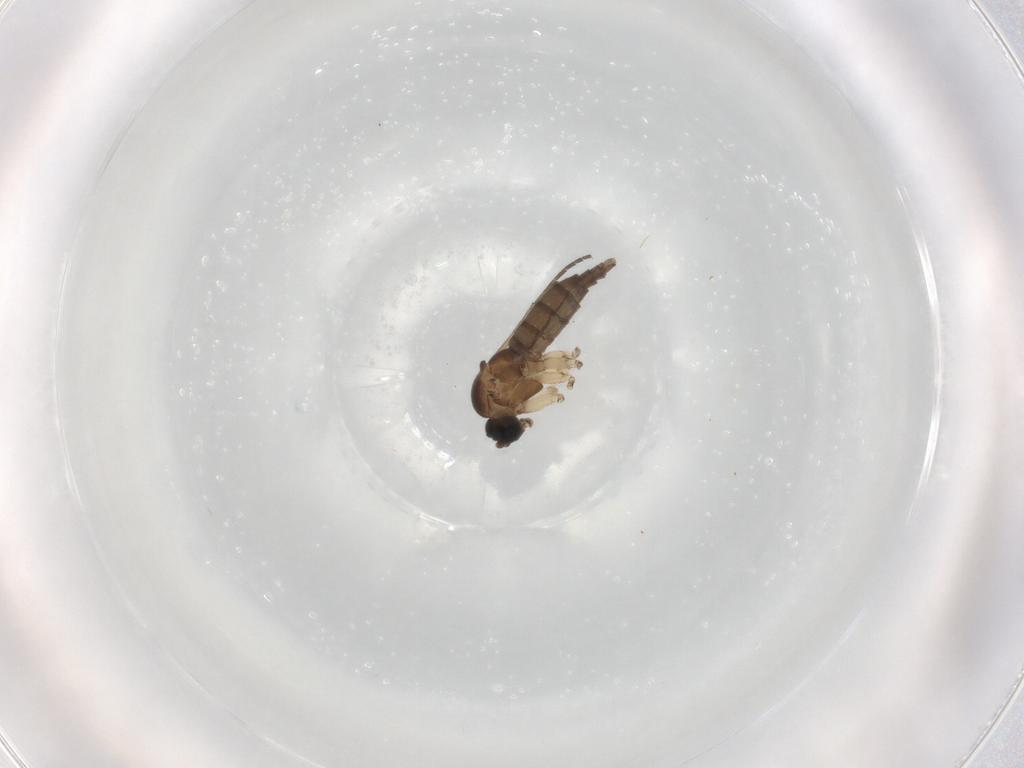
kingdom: Animalia
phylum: Arthropoda
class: Insecta
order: Diptera
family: Sciaridae
